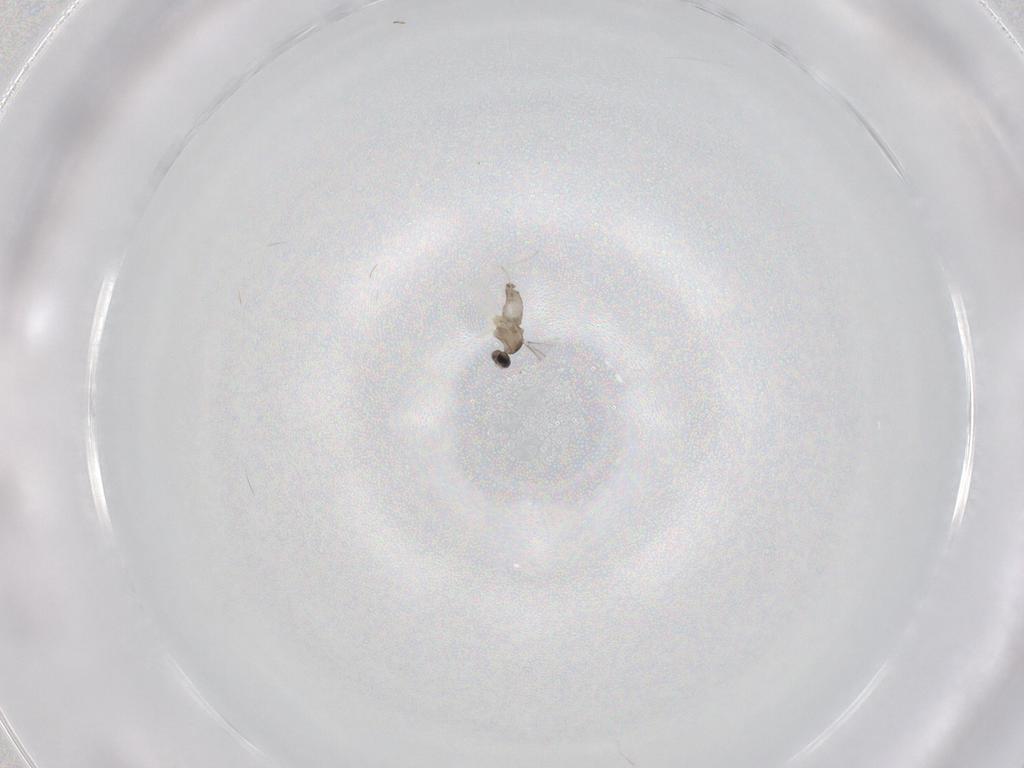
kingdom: Animalia
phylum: Arthropoda
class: Insecta
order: Diptera
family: Cecidomyiidae
